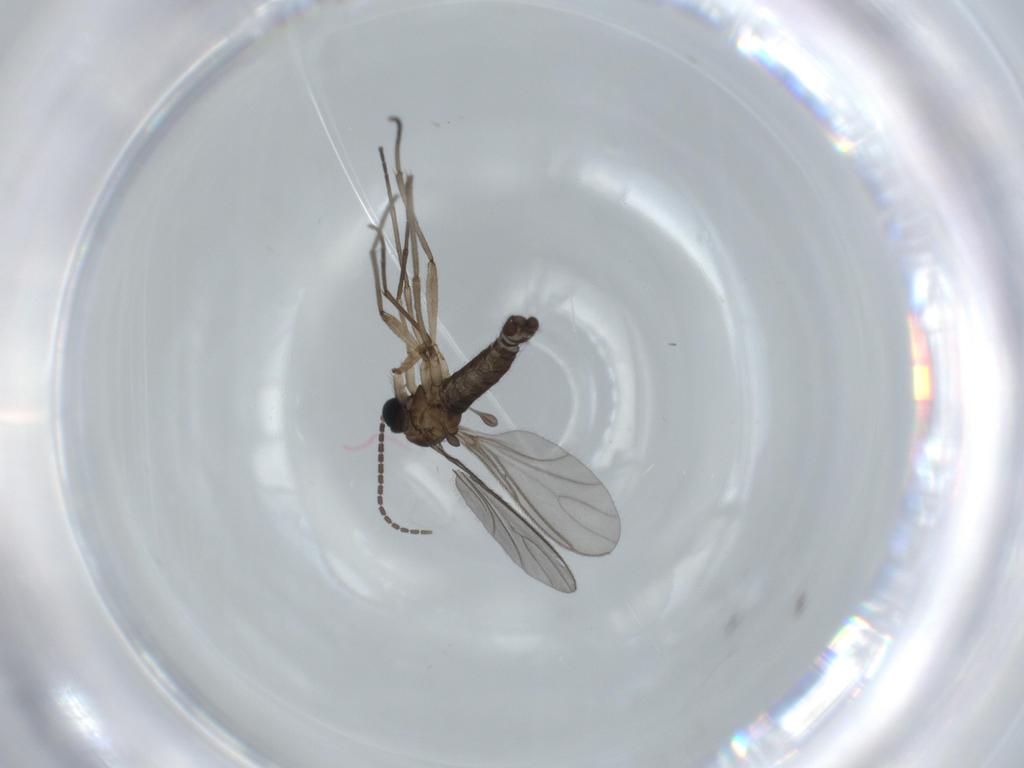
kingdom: Animalia
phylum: Arthropoda
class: Insecta
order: Diptera
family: Sciaridae
